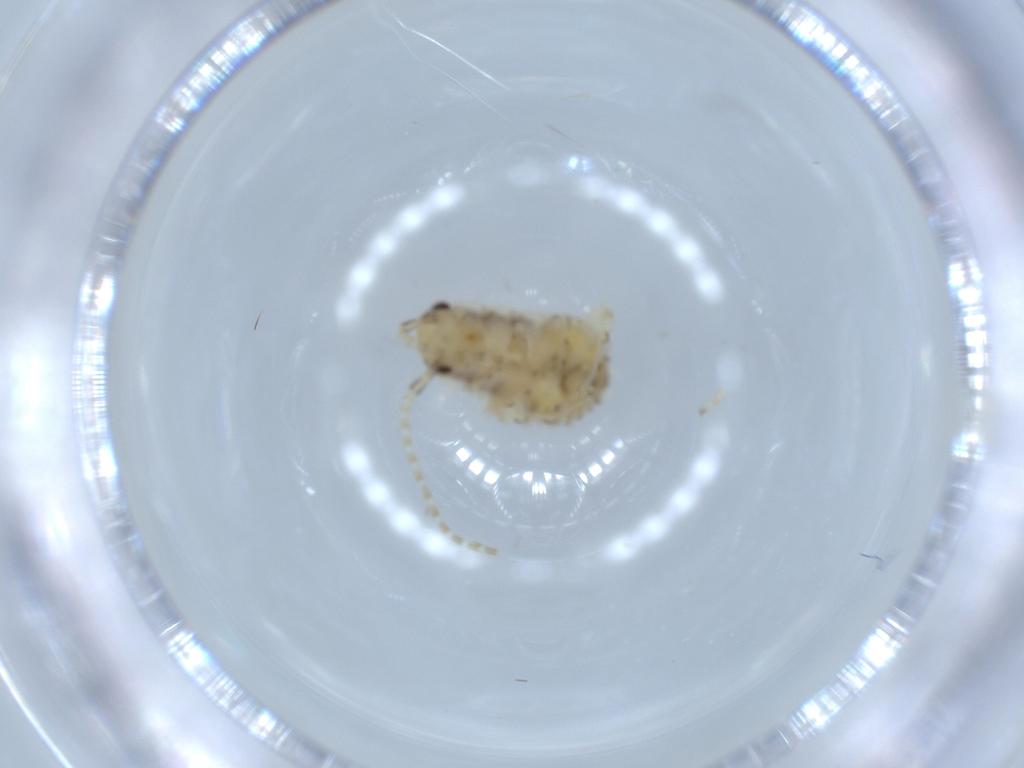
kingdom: Animalia
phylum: Arthropoda
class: Insecta
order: Blattodea
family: Ectobiidae
